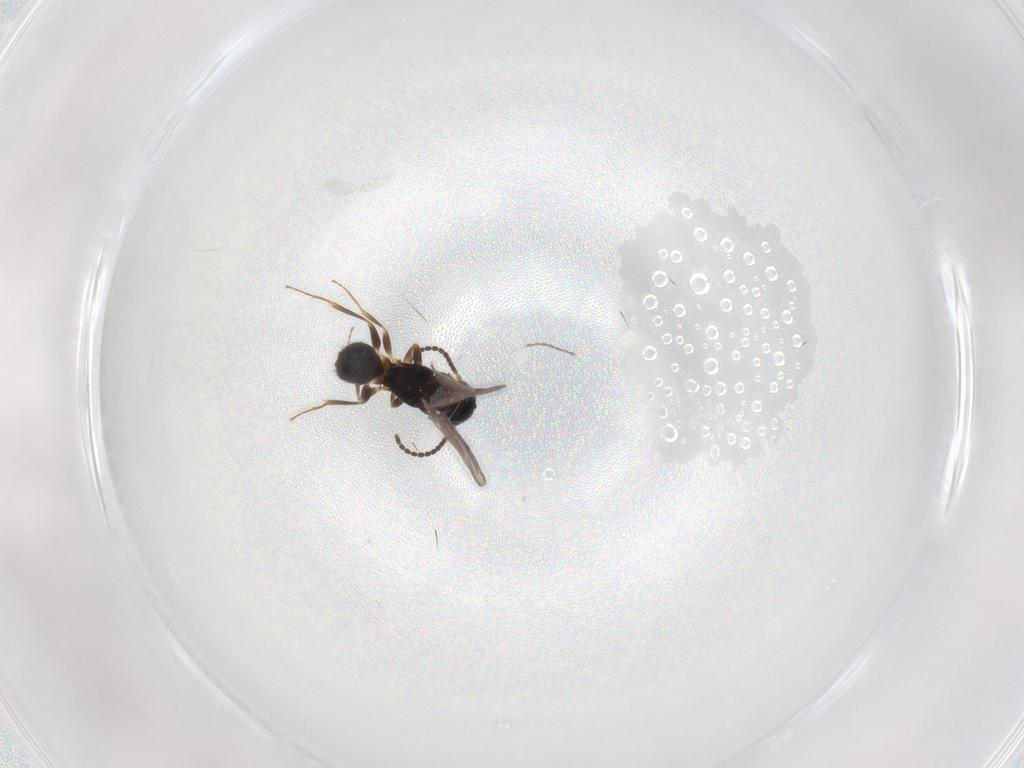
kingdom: Animalia
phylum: Arthropoda
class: Insecta
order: Hymenoptera
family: Bethylidae
